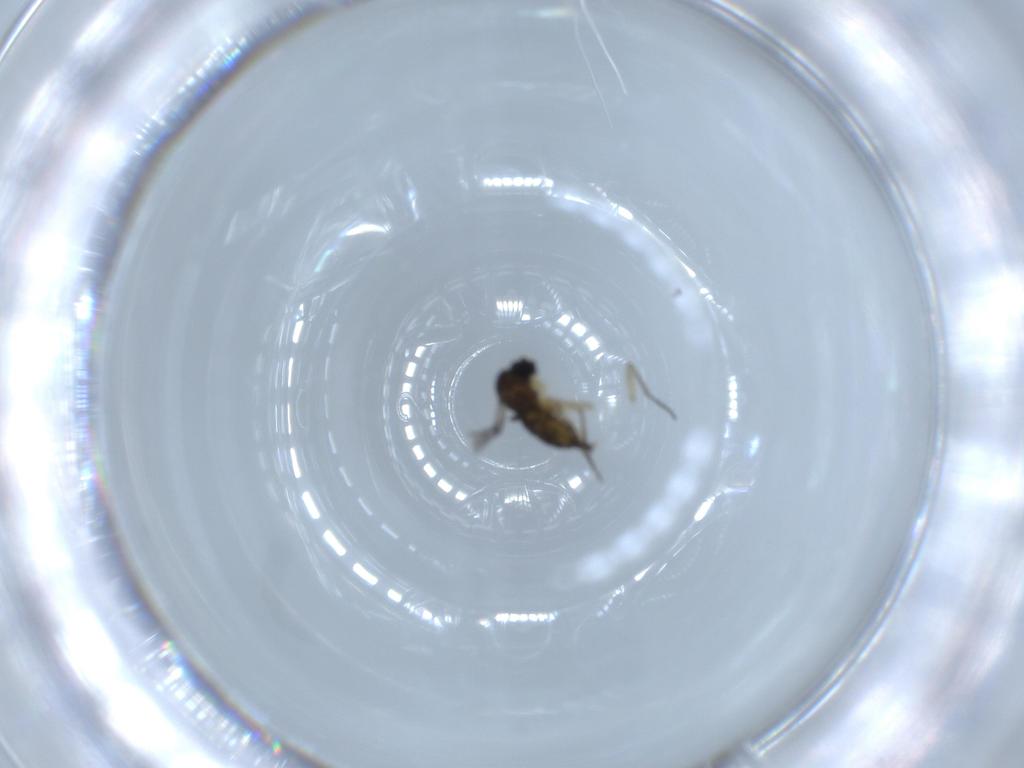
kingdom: Animalia
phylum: Arthropoda
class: Insecta
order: Diptera
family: Sciaridae
